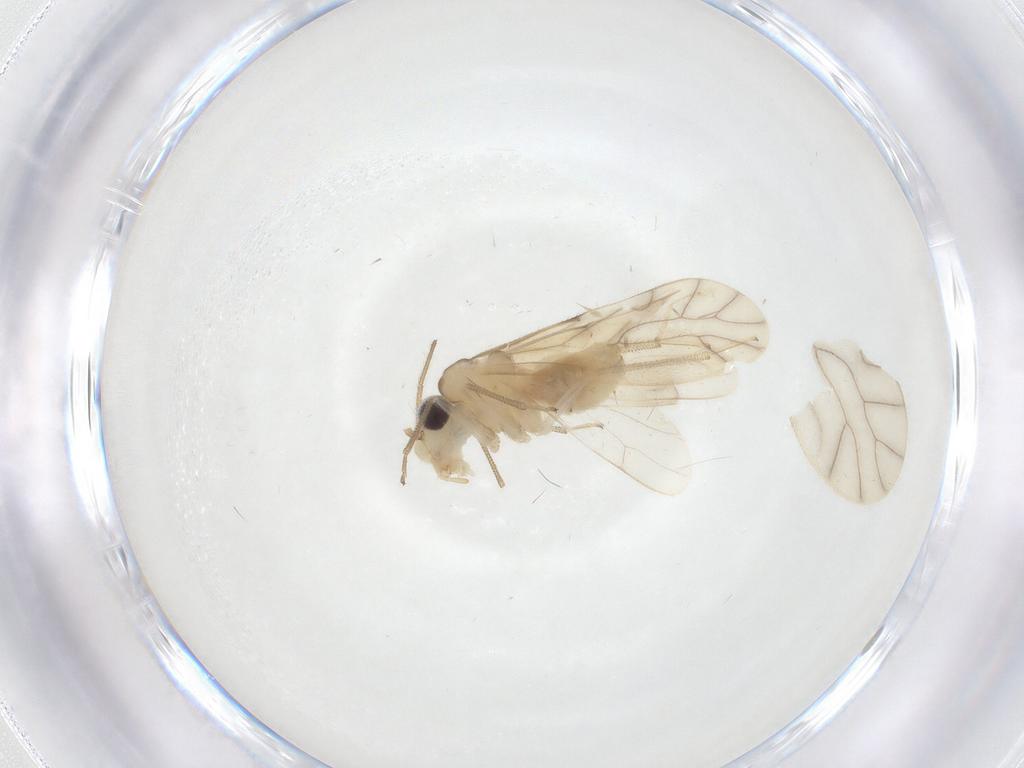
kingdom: Animalia
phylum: Arthropoda
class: Insecta
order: Psocodea
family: Caeciliusidae
